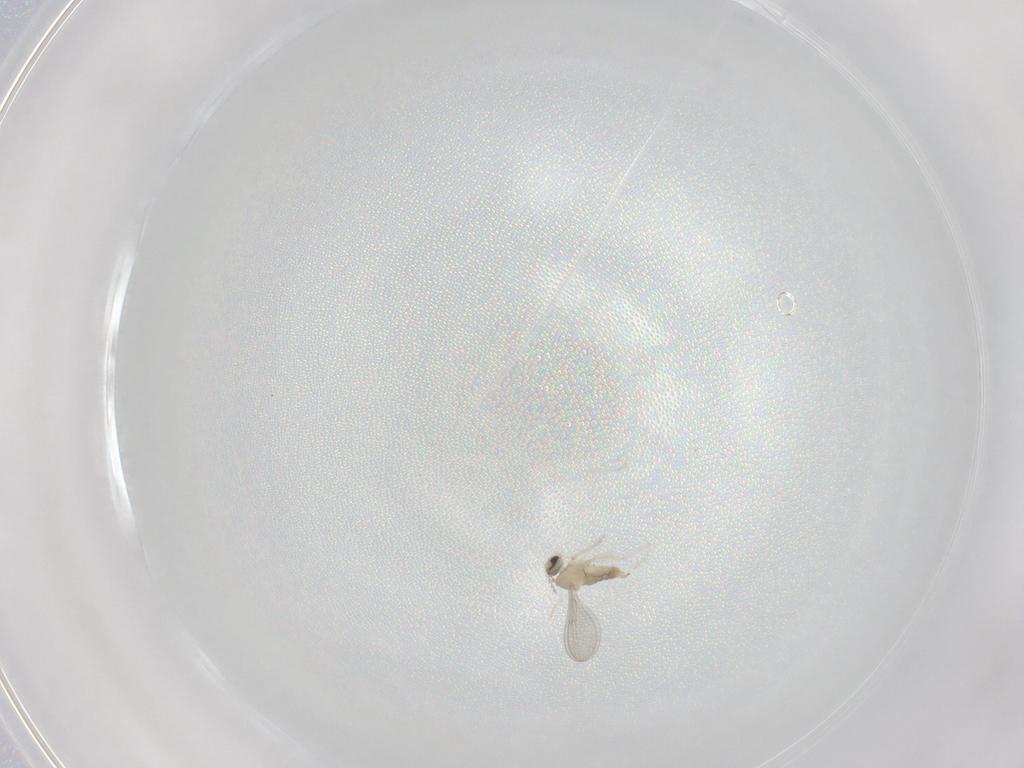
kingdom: Animalia
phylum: Arthropoda
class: Insecta
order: Diptera
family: Cecidomyiidae
